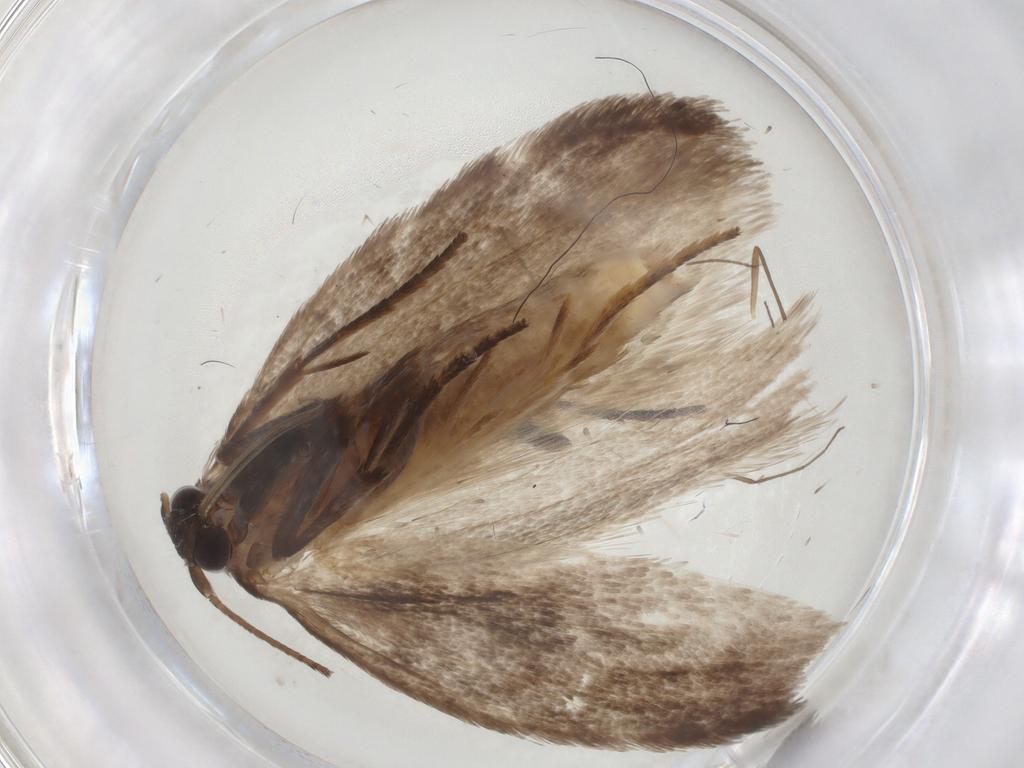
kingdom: Animalia
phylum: Arthropoda
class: Insecta
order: Lepidoptera
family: Roeslerstammiidae
